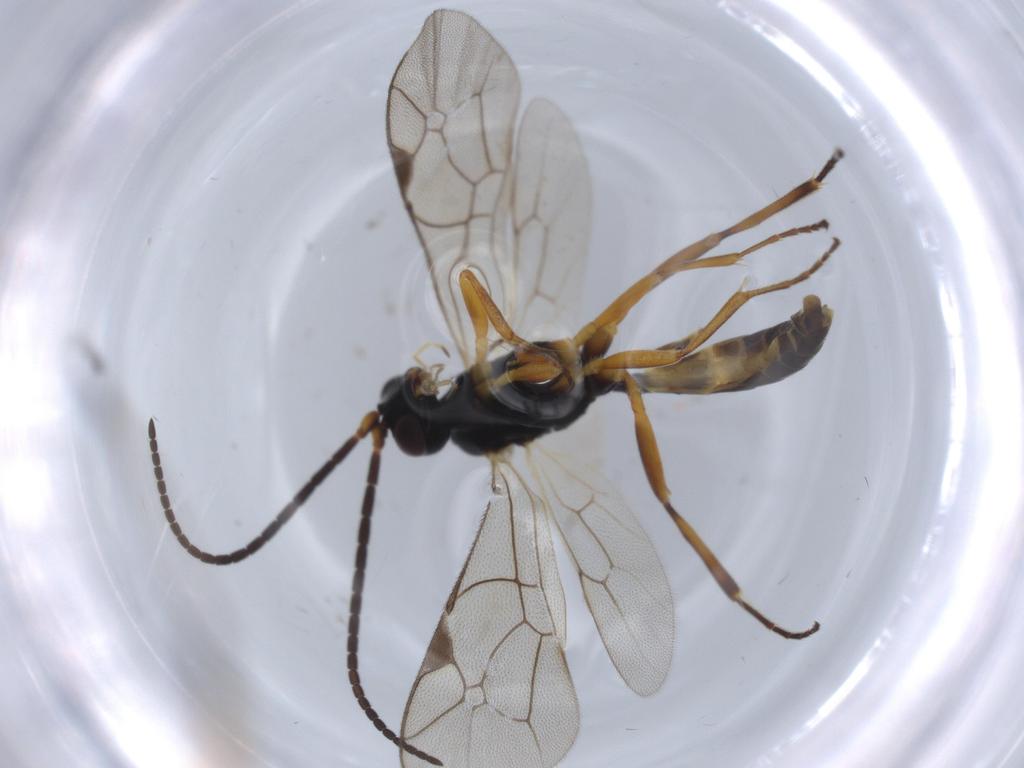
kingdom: Animalia
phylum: Arthropoda
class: Insecta
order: Hymenoptera
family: Ichneumonidae
